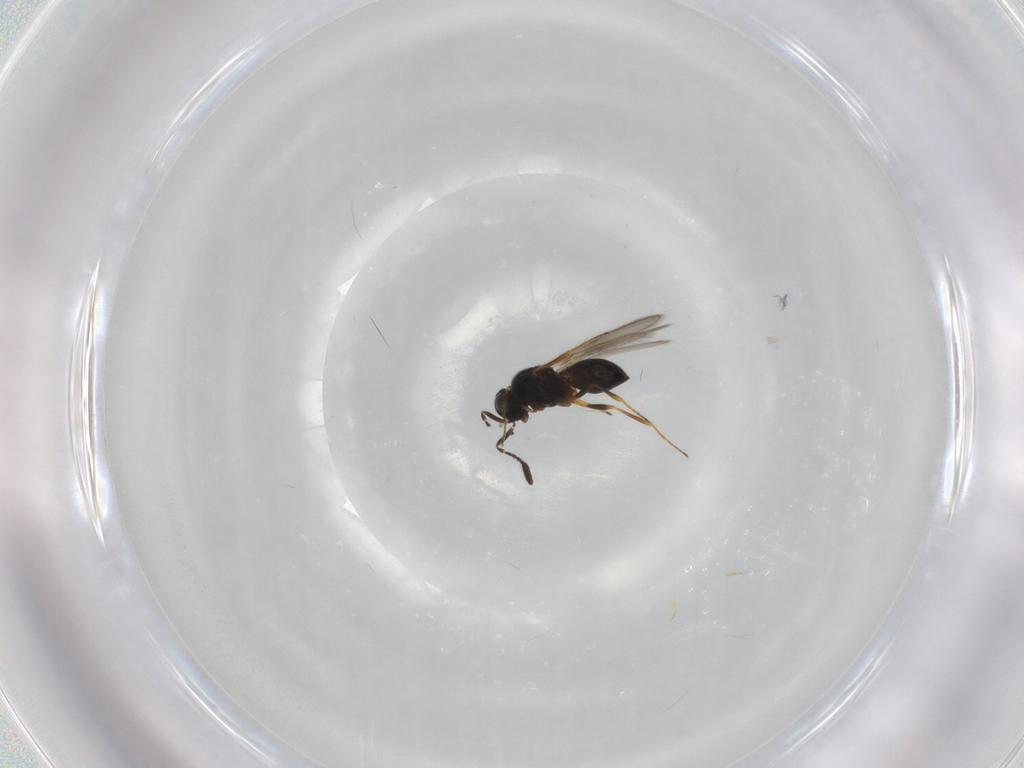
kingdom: Animalia
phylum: Arthropoda
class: Insecta
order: Hymenoptera
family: Scelionidae
